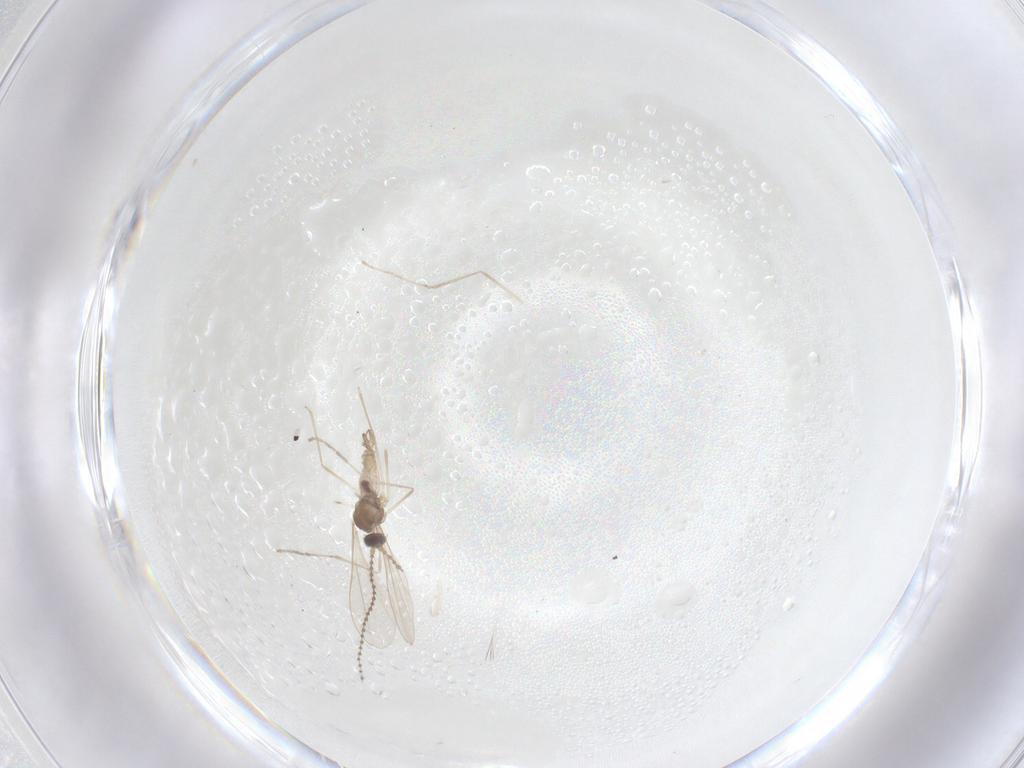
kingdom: Animalia
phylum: Arthropoda
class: Insecta
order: Diptera
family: Cecidomyiidae
